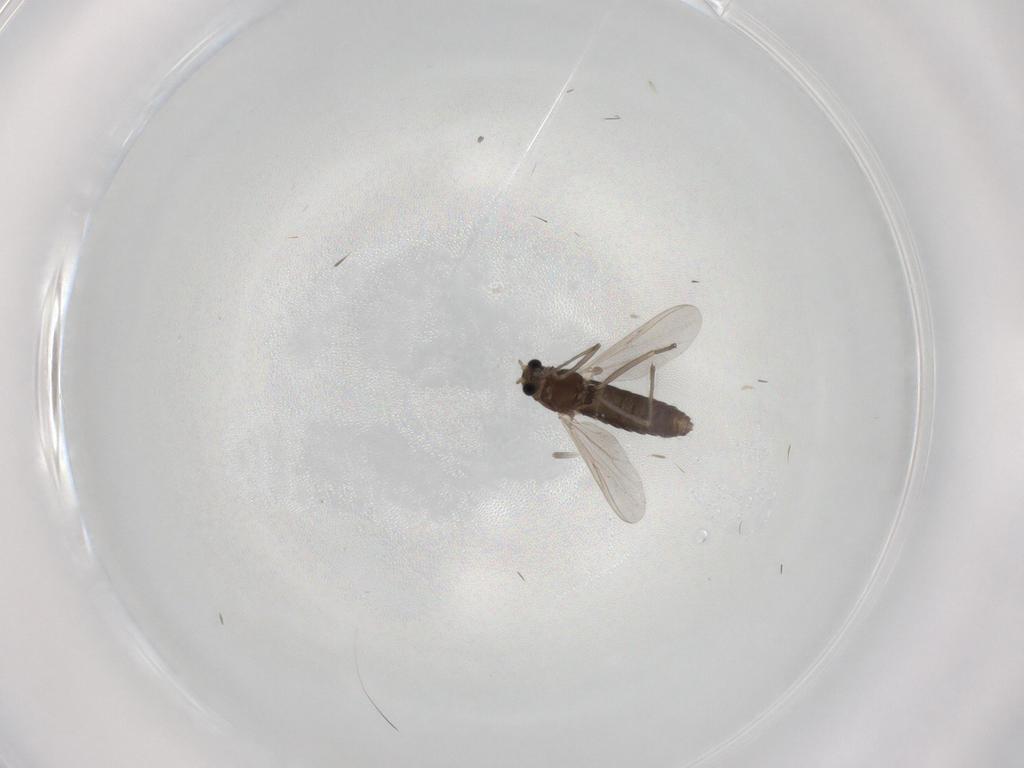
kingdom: Animalia
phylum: Arthropoda
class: Insecta
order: Diptera
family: Chironomidae
